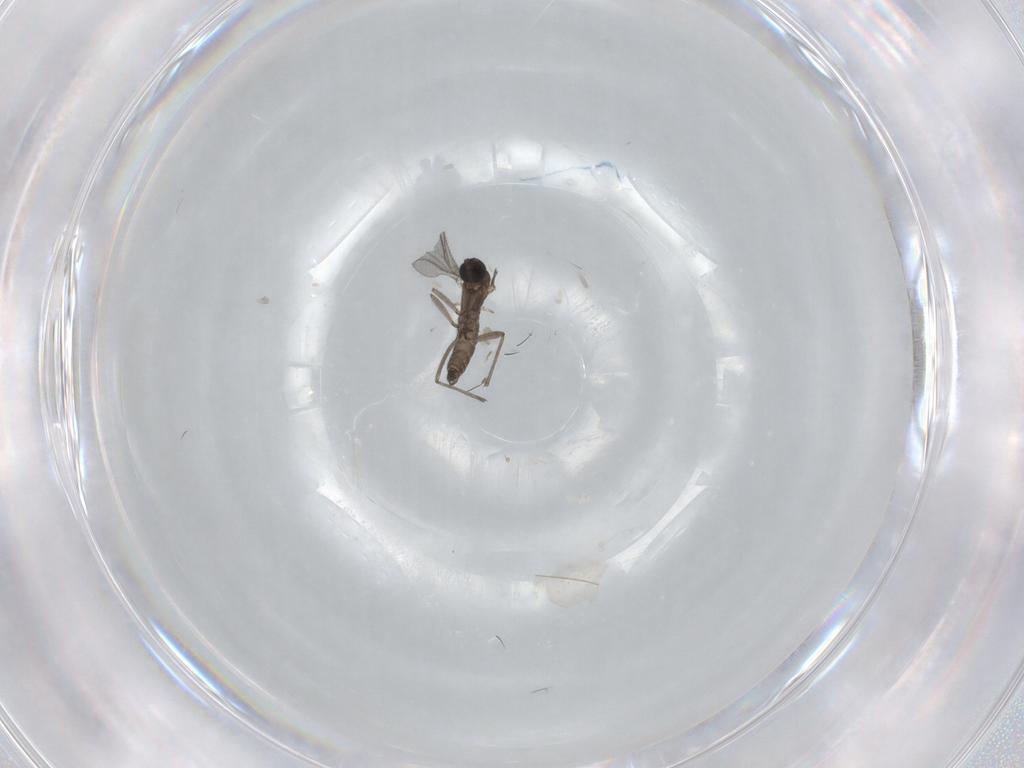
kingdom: Animalia
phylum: Arthropoda
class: Insecta
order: Diptera
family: Cecidomyiidae
